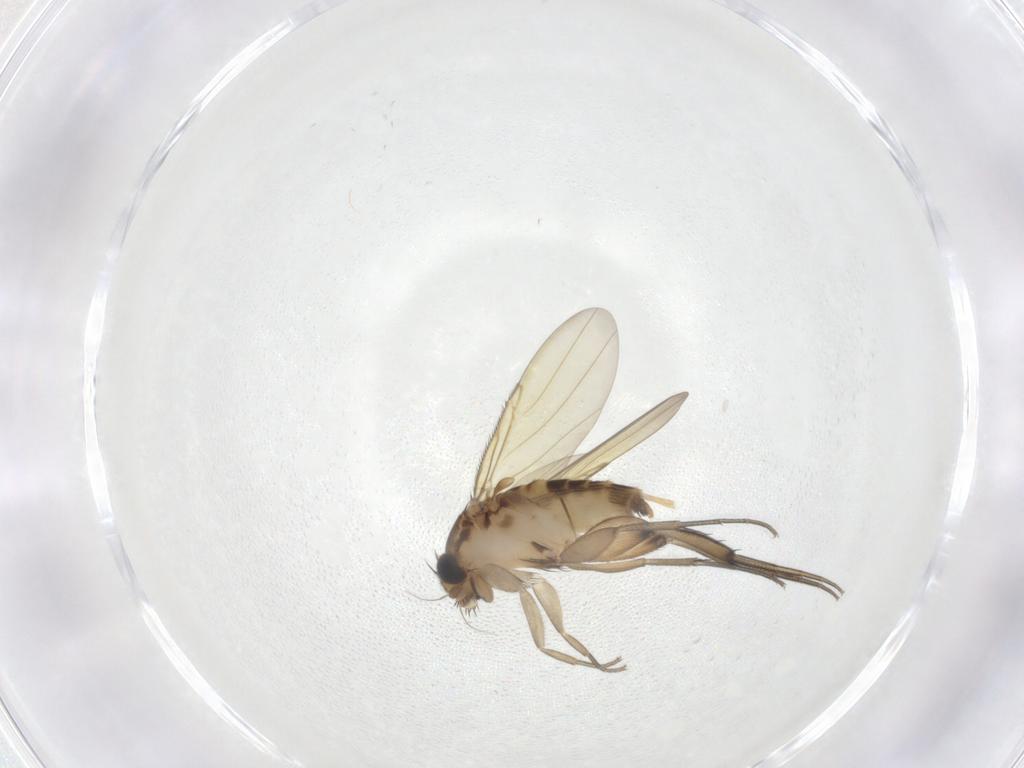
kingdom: Animalia
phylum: Arthropoda
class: Insecta
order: Diptera
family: Phoridae
